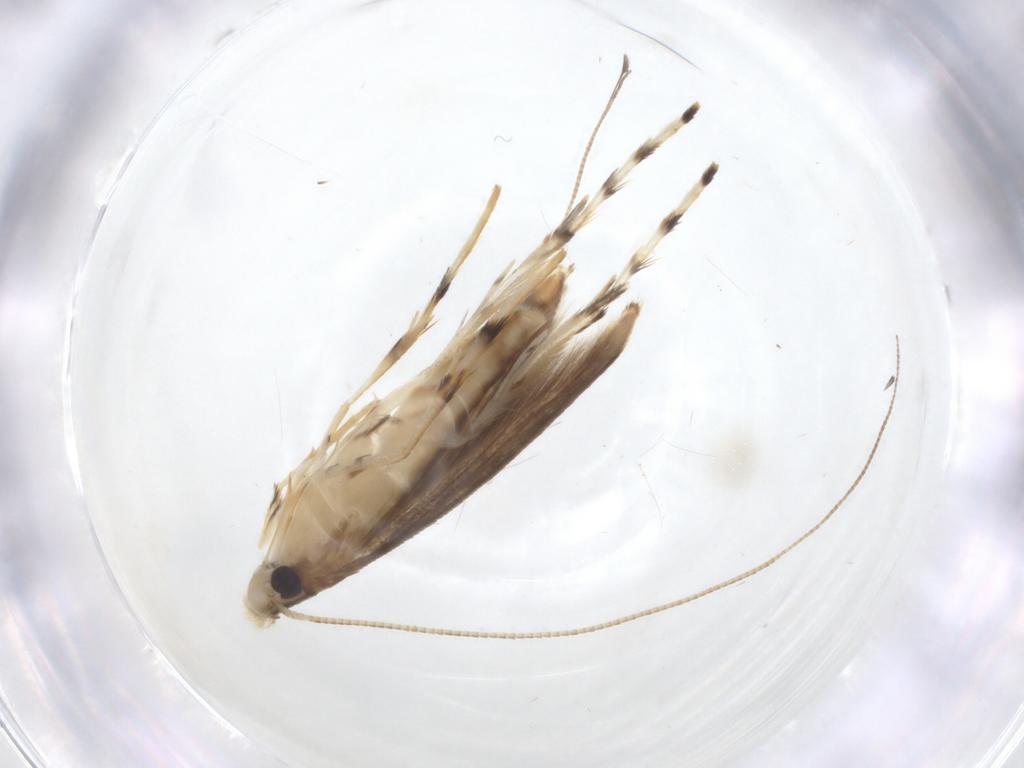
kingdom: Animalia
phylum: Arthropoda
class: Insecta
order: Lepidoptera
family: Gracillariidae
